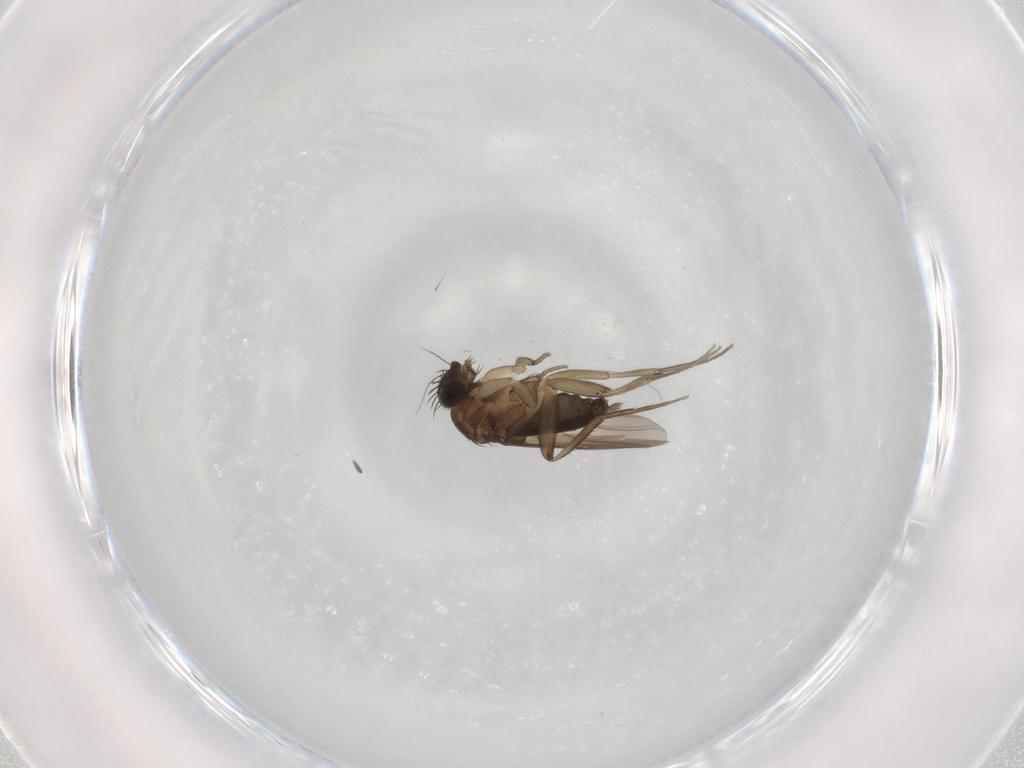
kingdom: Animalia
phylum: Arthropoda
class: Insecta
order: Diptera
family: Phoridae
